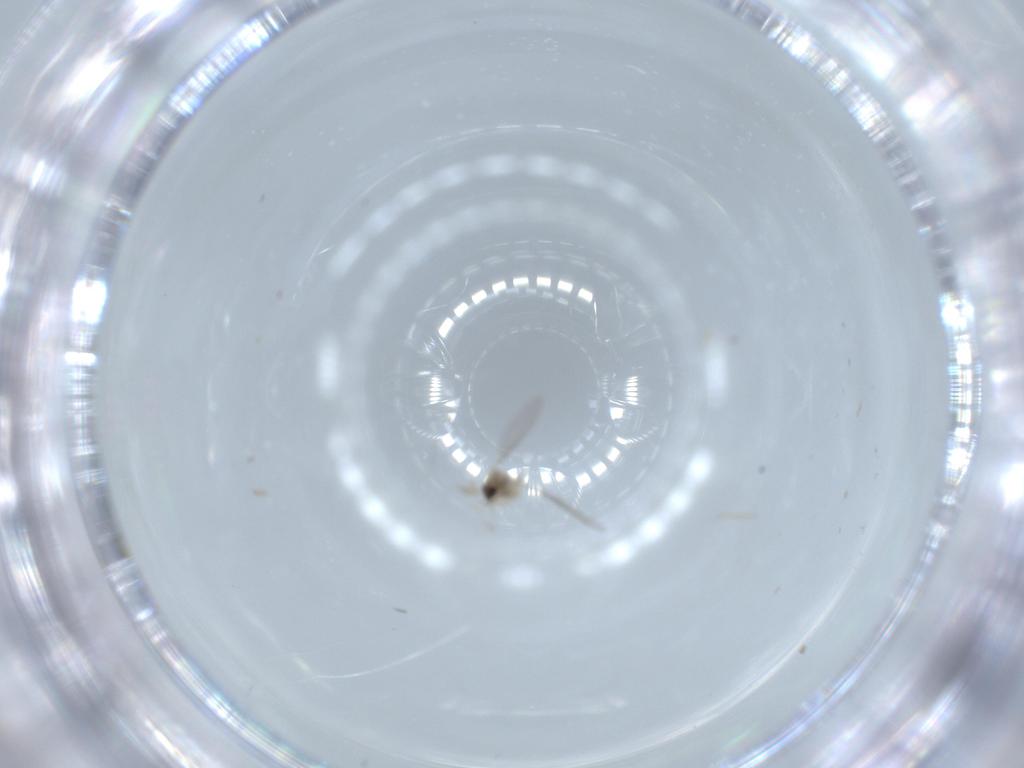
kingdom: Animalia
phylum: Arthropoda
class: Insecta
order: Diptera
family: Cecidomyiidae
